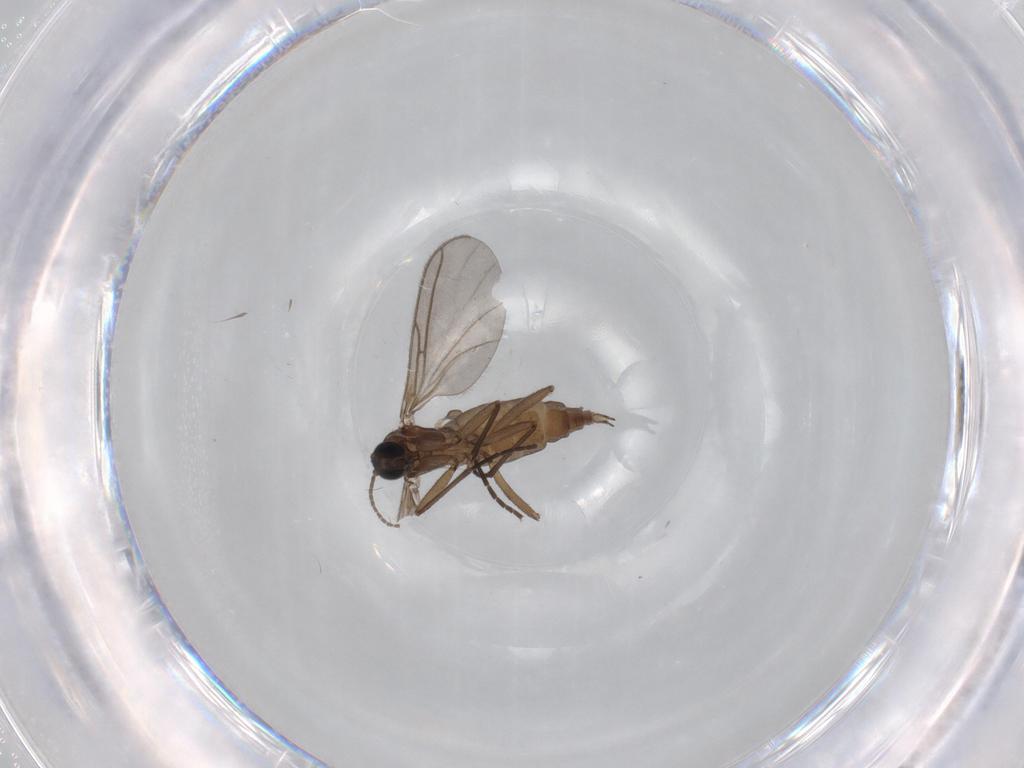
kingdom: Animalia
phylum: Arthropoda
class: Insecta
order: Diptera
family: Sciaridae
